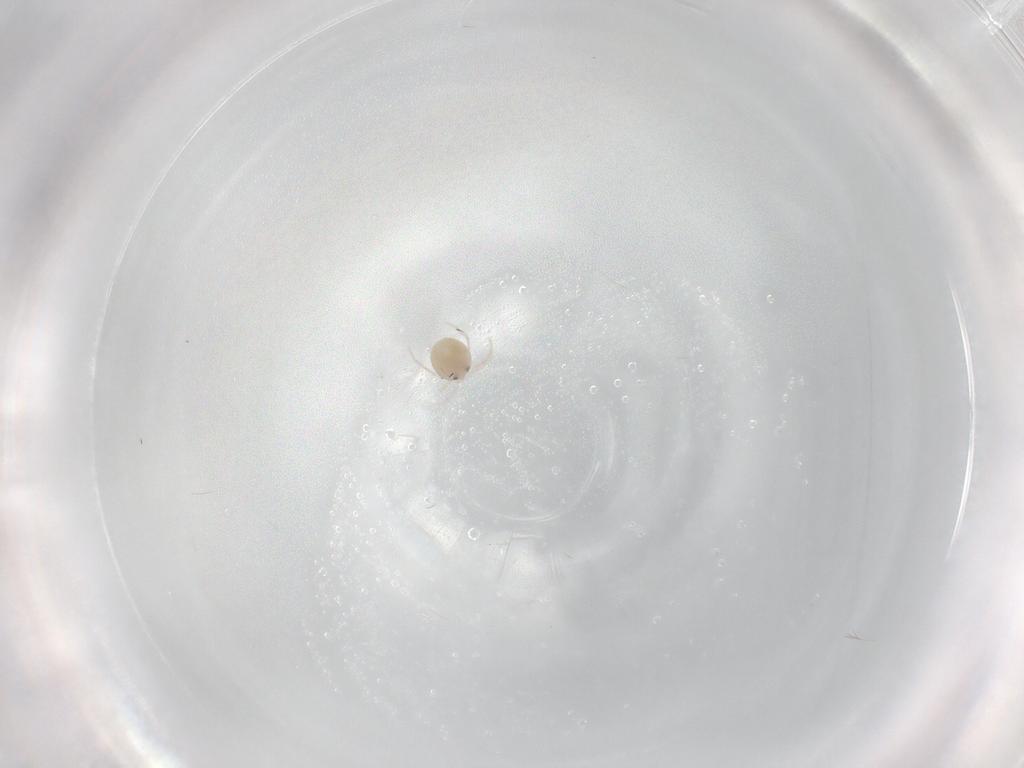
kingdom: Animalia
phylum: Arthropoda
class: Arachnida
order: Trombidiformes
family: Lebertiidae
